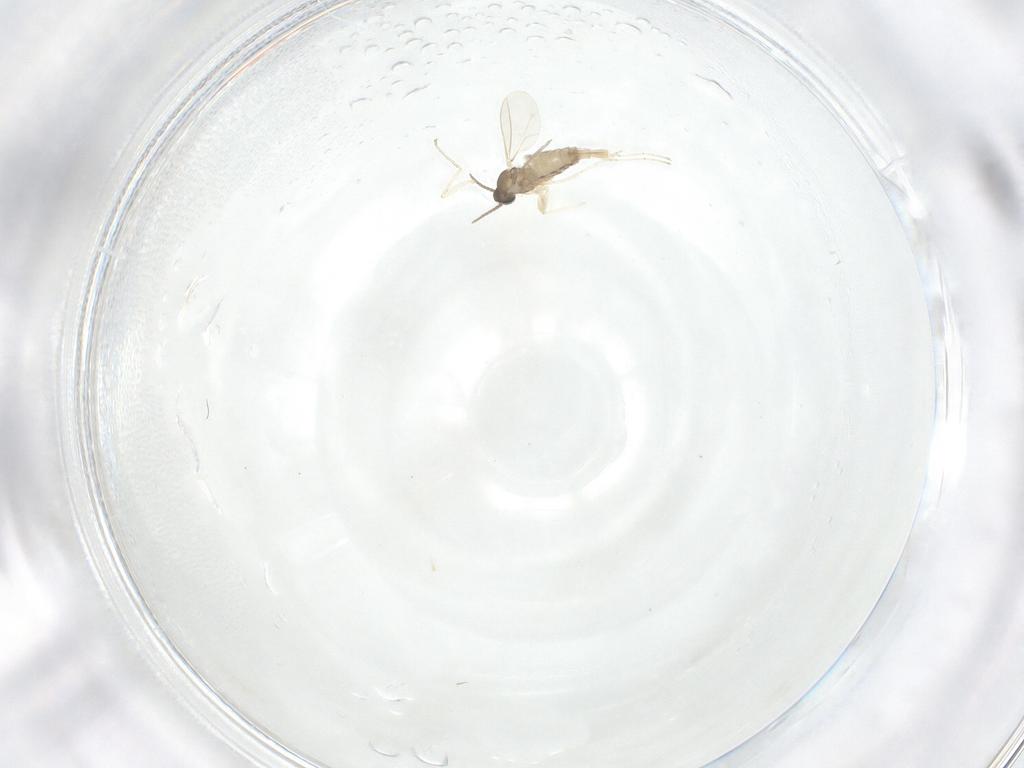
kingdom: Animalia
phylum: Arthropoda
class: Insecta
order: Diptera
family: Cecidomyiidae
